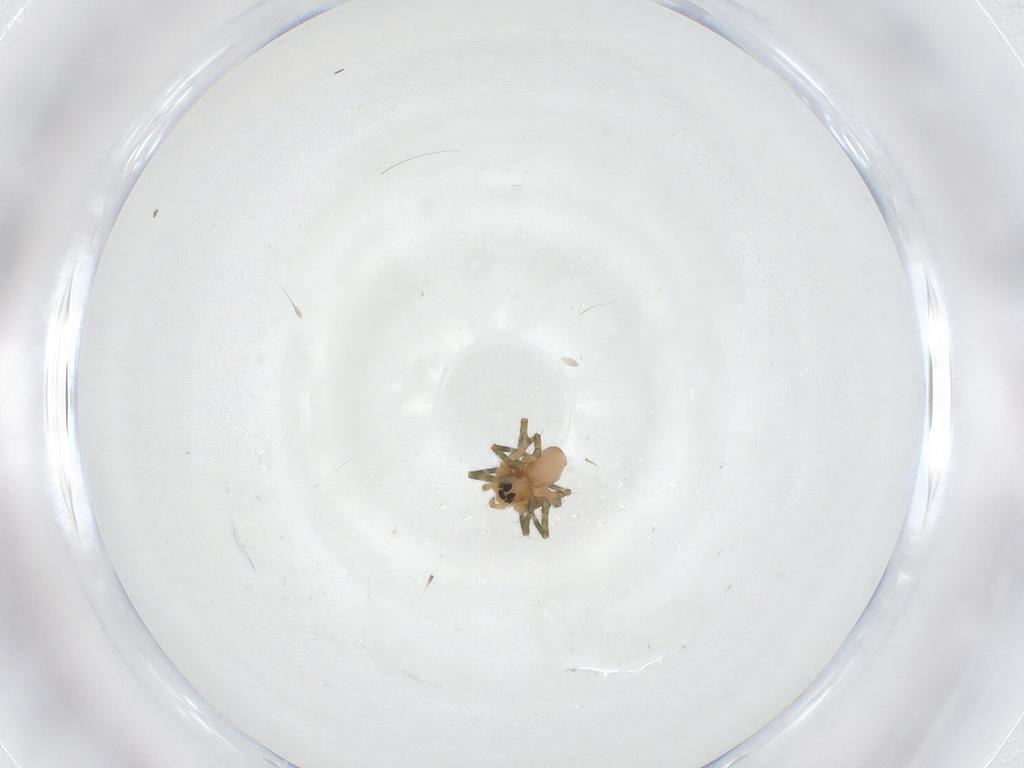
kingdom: Animalia
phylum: Arthropoda
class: Arachnida
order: Araneae
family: Linyphiidae
